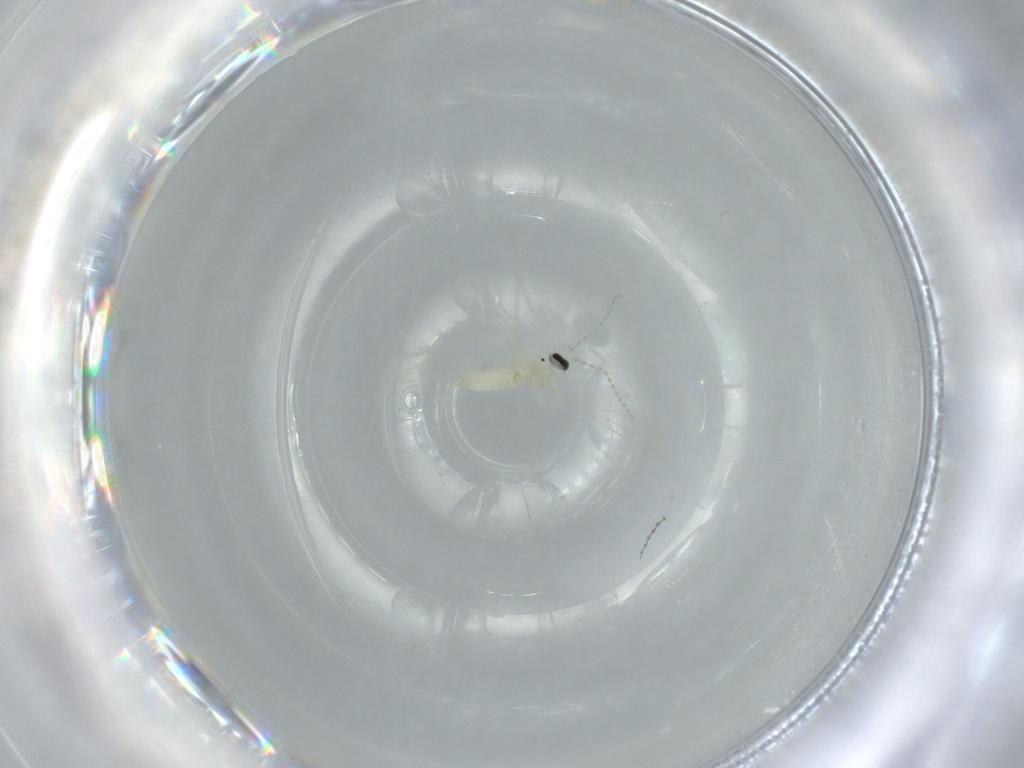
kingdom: Animalia
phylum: Arthropoda
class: Insecta
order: Diptera
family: Cecidomyiidae
